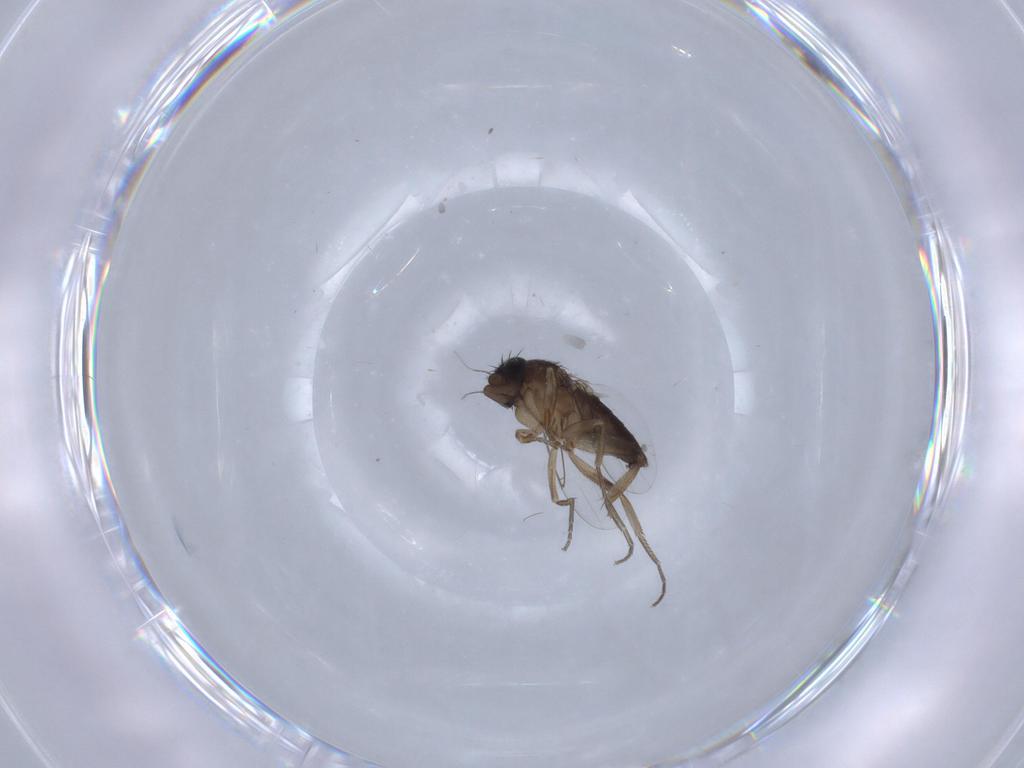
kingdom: Animalia
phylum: Arthropoda
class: Insecta
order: Diptera
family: Phoridae
